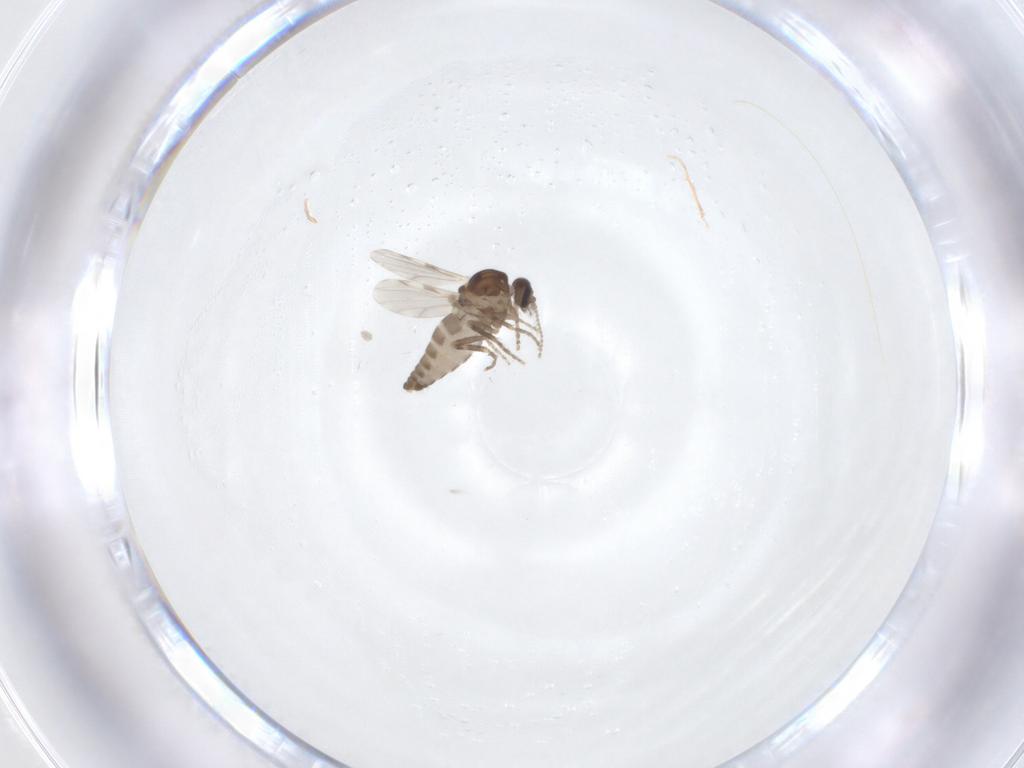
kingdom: Animalia
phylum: Arthropoda
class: Insecta
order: Diptera
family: Ceratopogonidae
